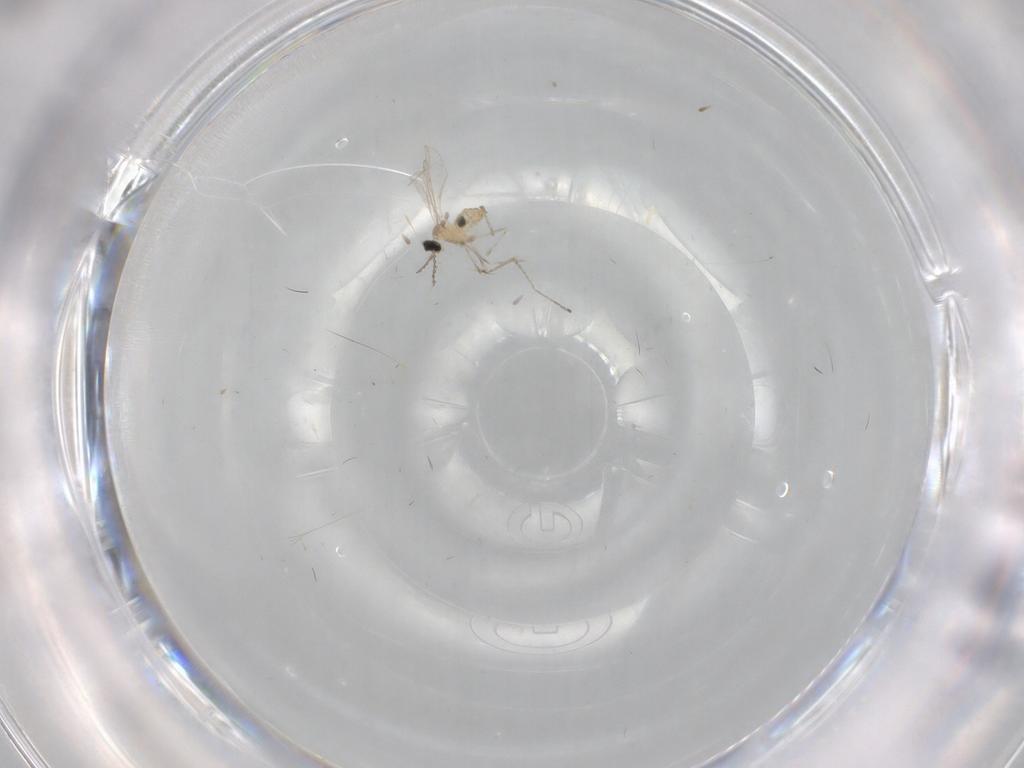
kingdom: Animalia
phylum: Arthropoda
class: Insecta
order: Diptera
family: Cecidomyiidae
